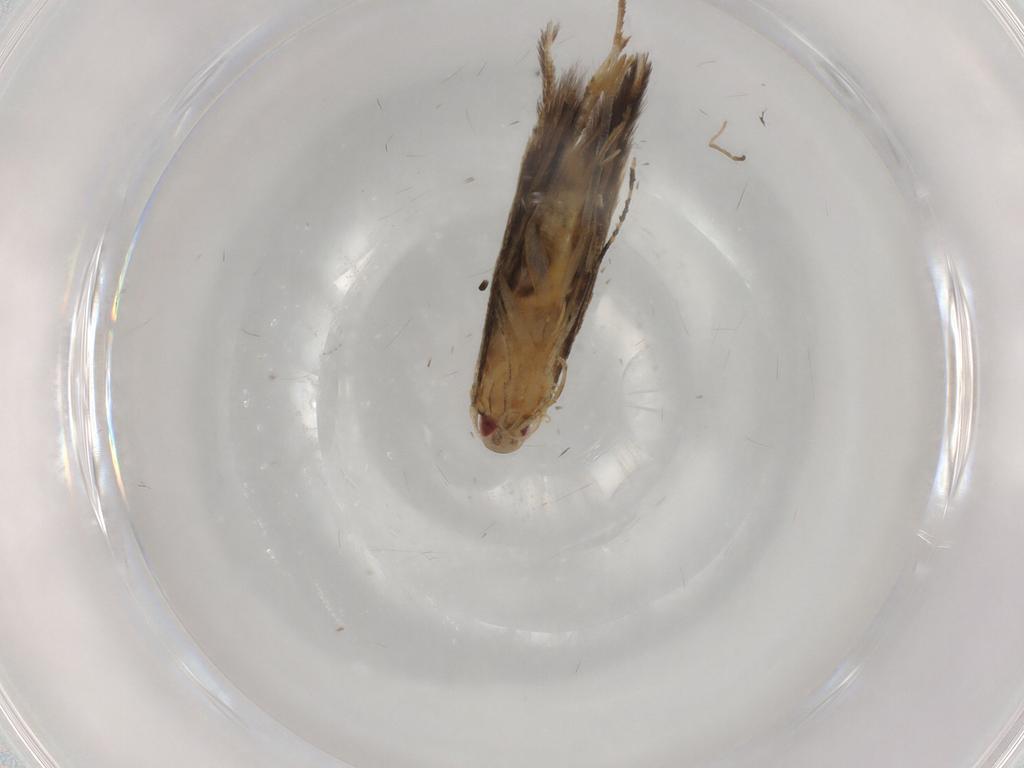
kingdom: Animalia
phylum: Arthropoda
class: Insecta
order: Lepidoptera
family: Cosmopterigidae
